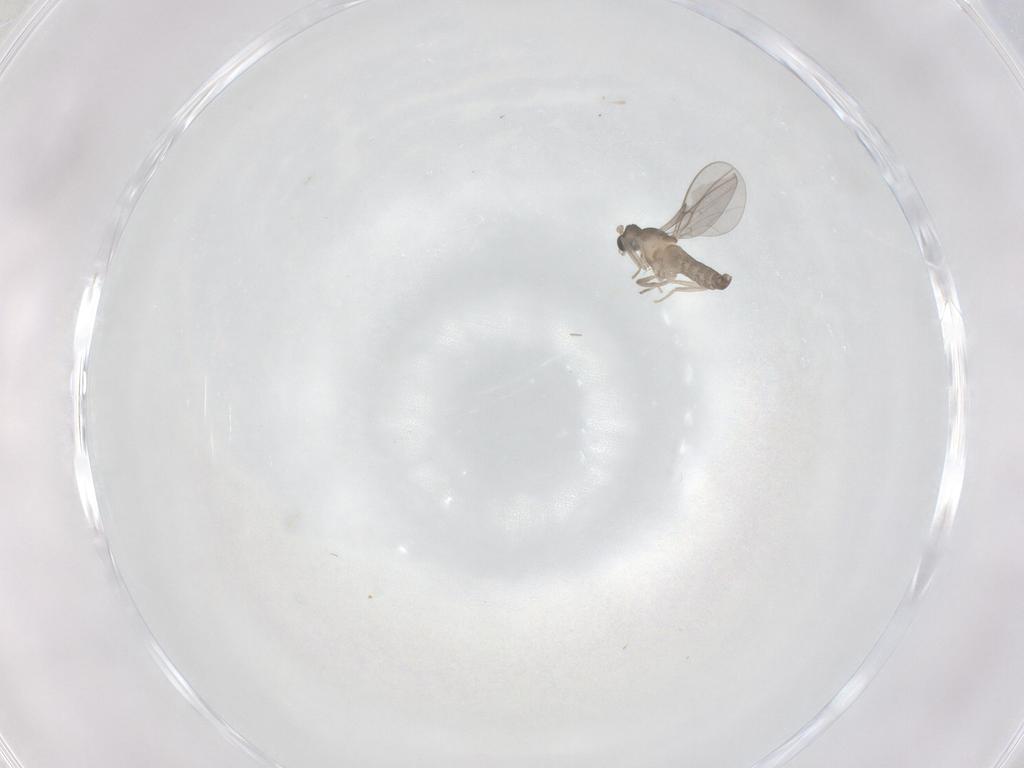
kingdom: Animalia
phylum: Arthropoda
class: Insecta
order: Diptera
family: Cecidomyiidae
